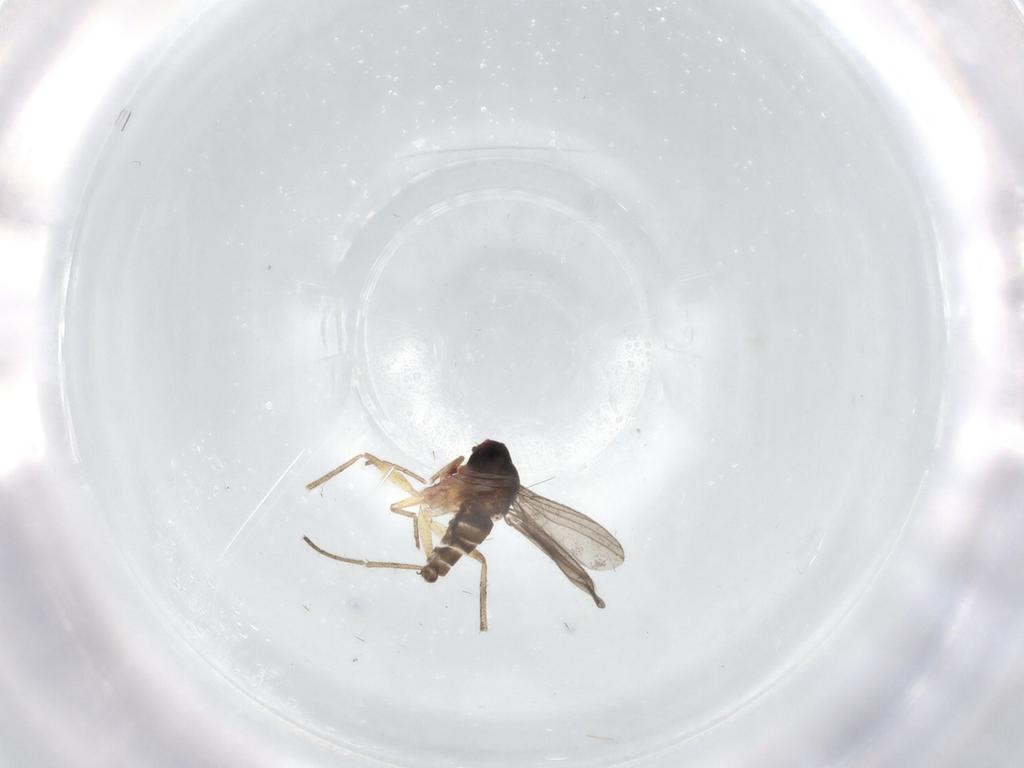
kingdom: Animalia
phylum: Arthropoda
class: Insecta
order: Diptera
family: Dolichopodidae
